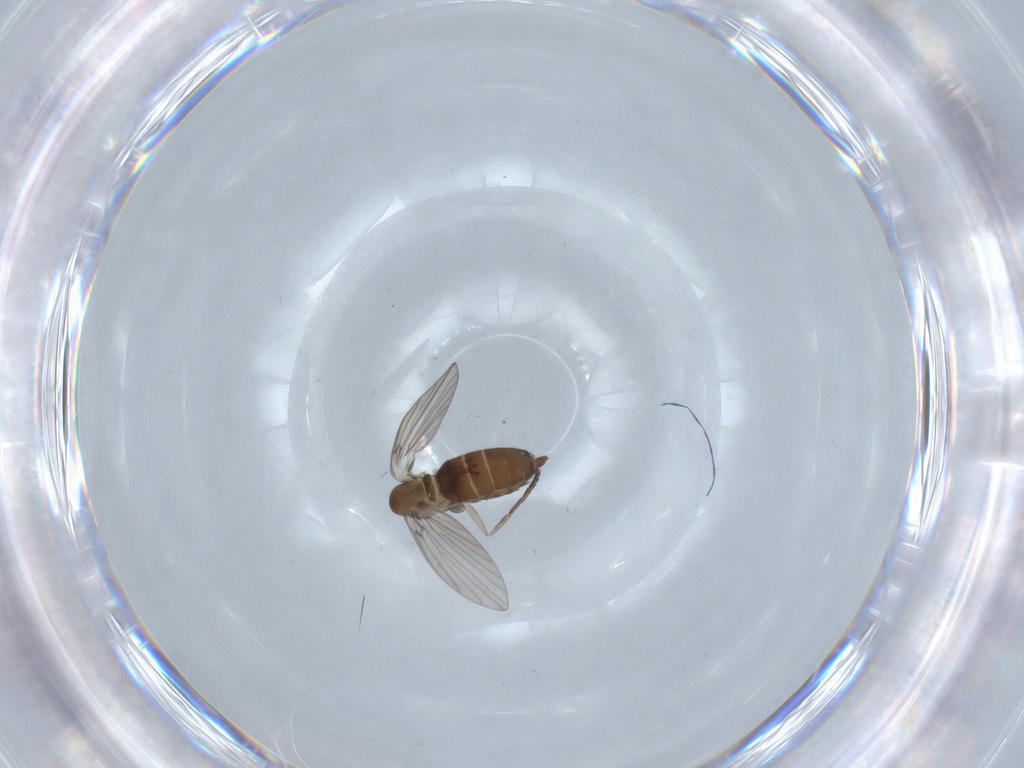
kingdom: Animalia
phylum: Arthropoda
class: Insecta
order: Diptera
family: Psychodidae
